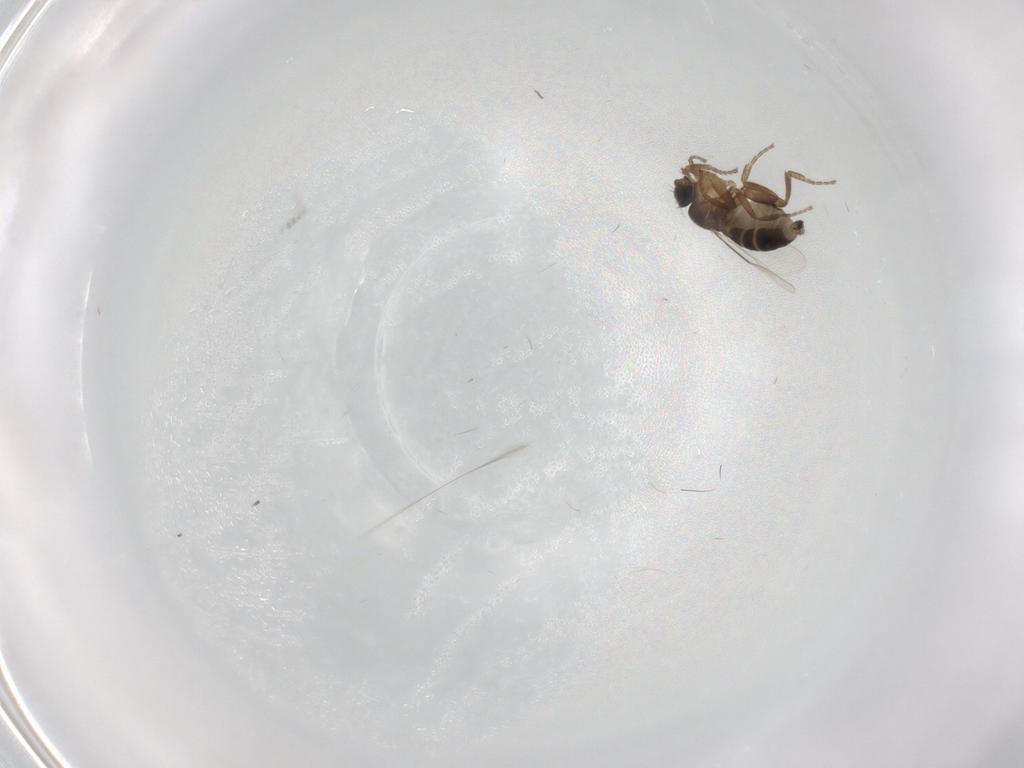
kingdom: Animalia
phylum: Arthropoda
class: Insecta
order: Diptera
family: Cecidomyiidae
